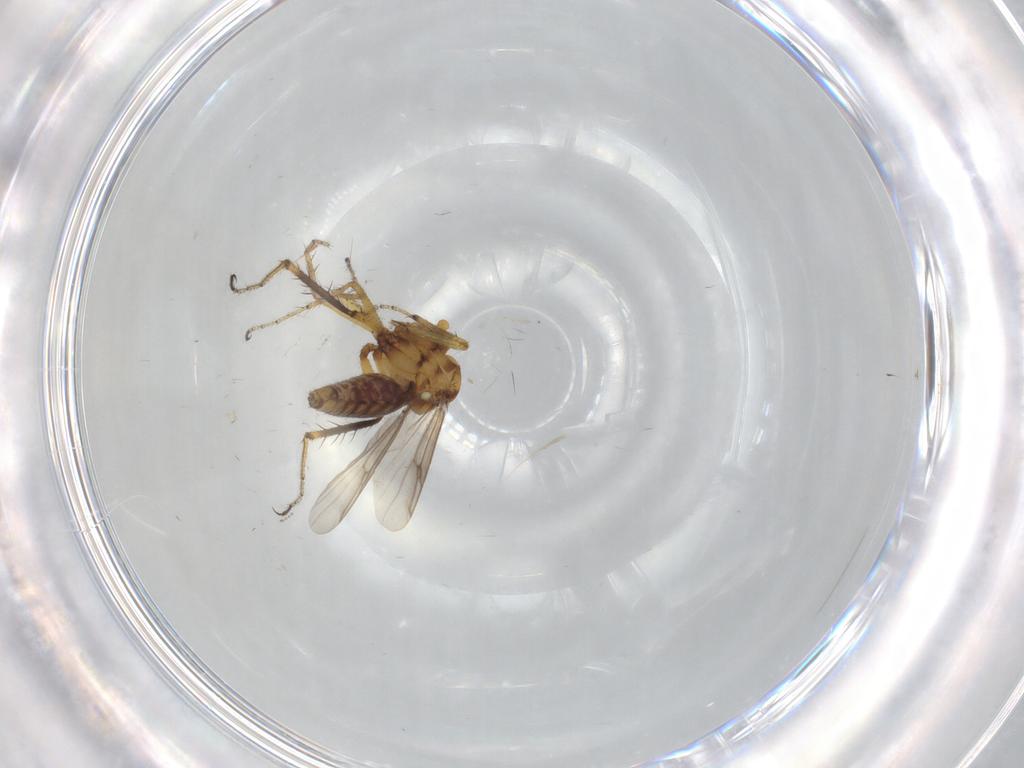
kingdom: Animalia
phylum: Arthropoda
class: Insecta
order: Diptera
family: Ceratopogonidae
